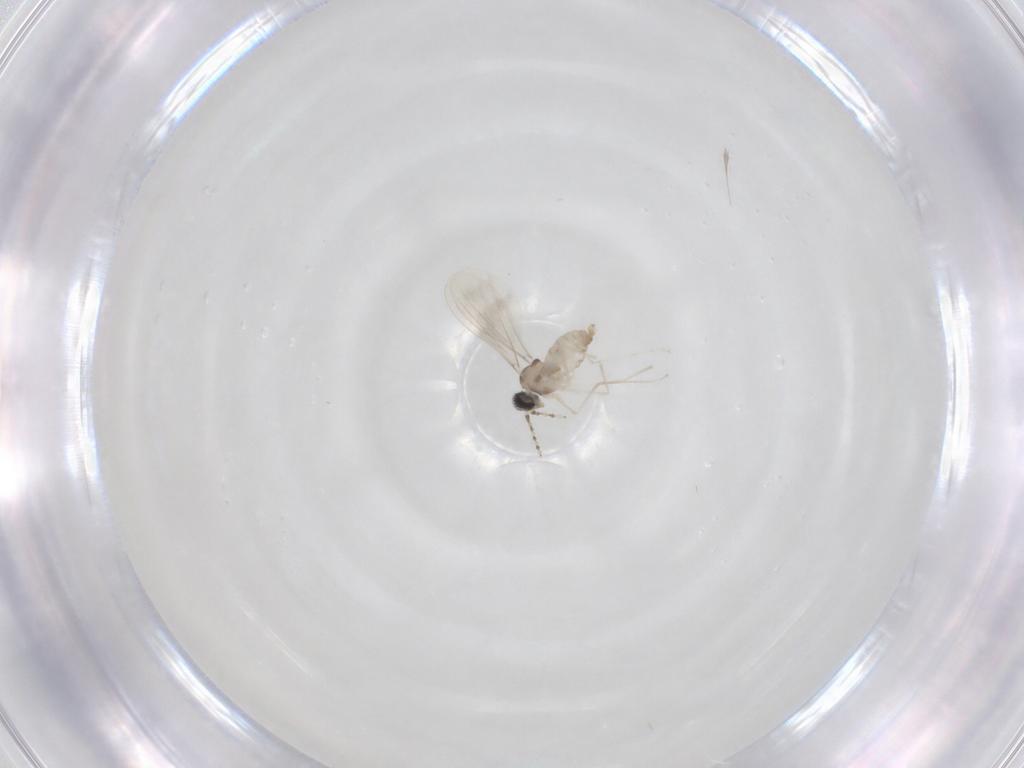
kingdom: Animalia
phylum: Arthropoda
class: Insecta
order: Diptera
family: Cecidomyiidae
